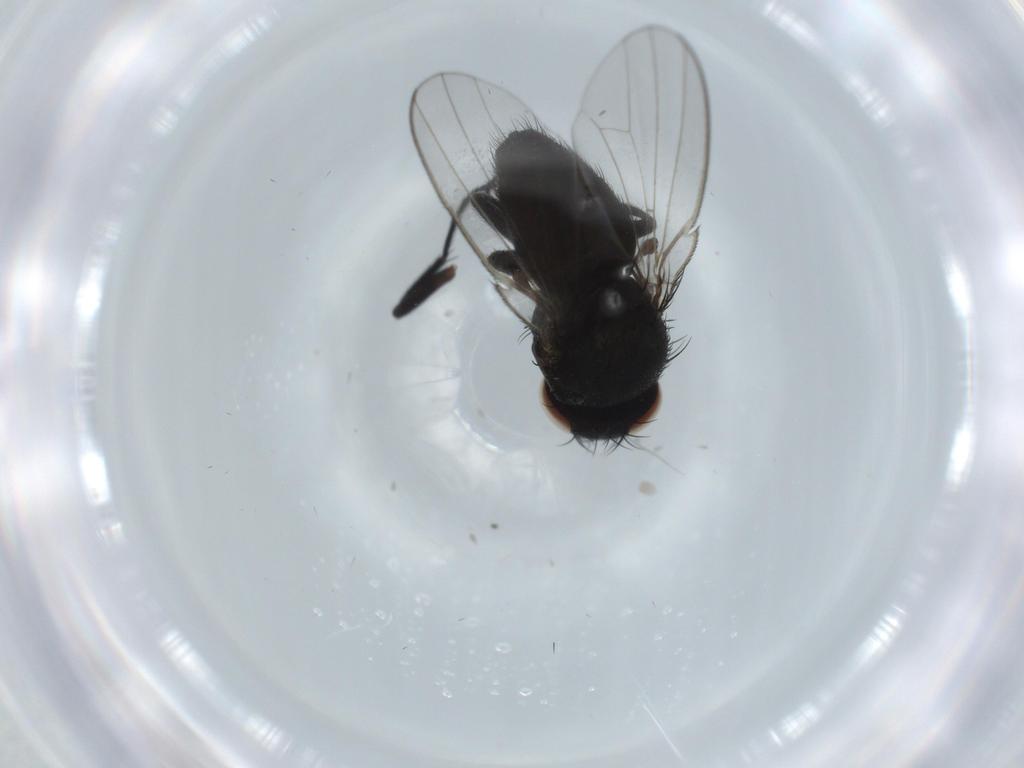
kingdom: Animalia
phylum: Arthropoda
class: Insecta
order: Diptera
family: Milichiidae
